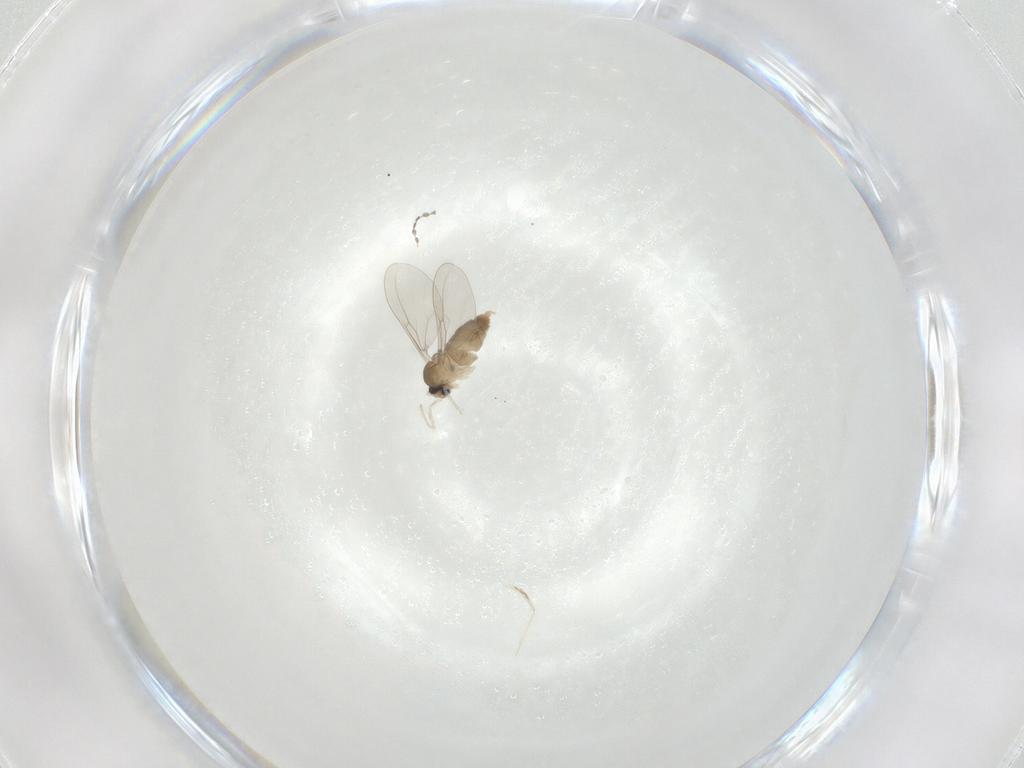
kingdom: Animalia
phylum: Arthropoda
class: Insecta
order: Diptera
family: Cecidomyiidae
